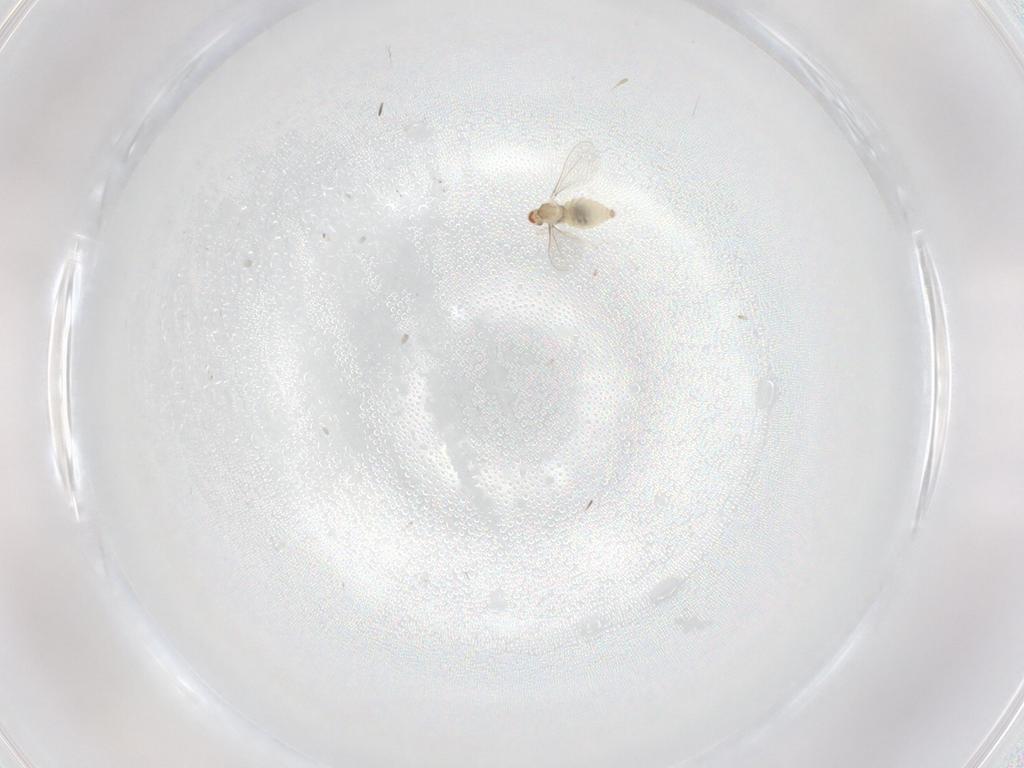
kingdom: Animalia
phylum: Arthropoda
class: Insecta
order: Diptera
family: Cecidomyiidae
